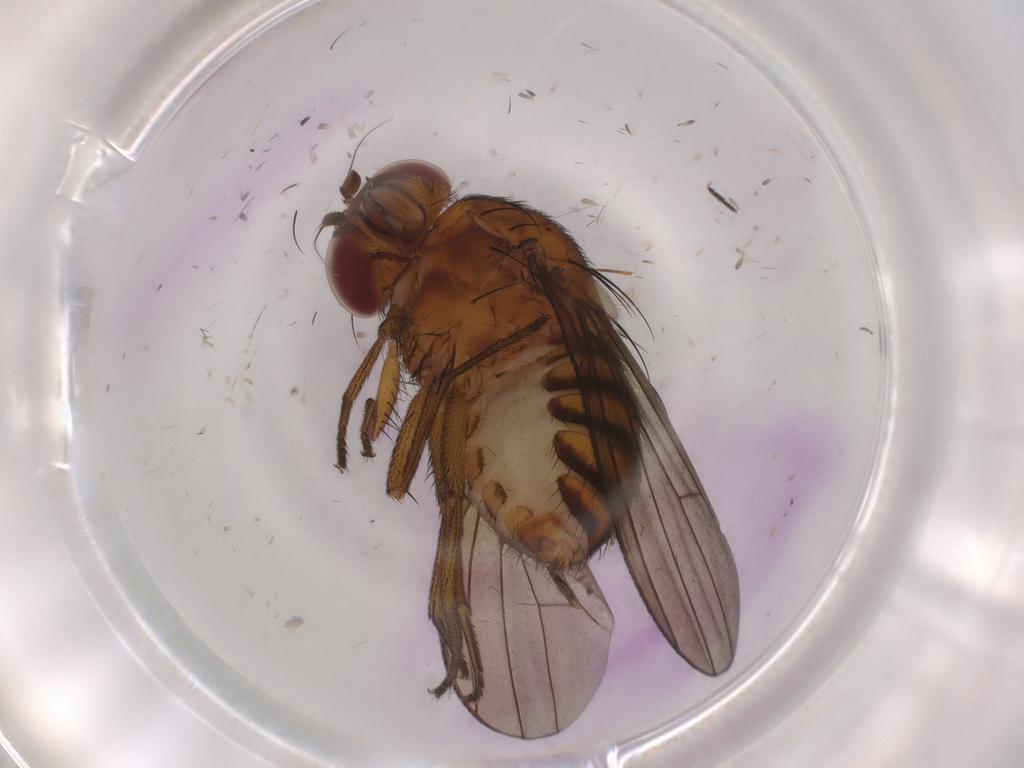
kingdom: Animalia
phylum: Arthropoda
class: Insecta
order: Diptera
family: Sciaridae
